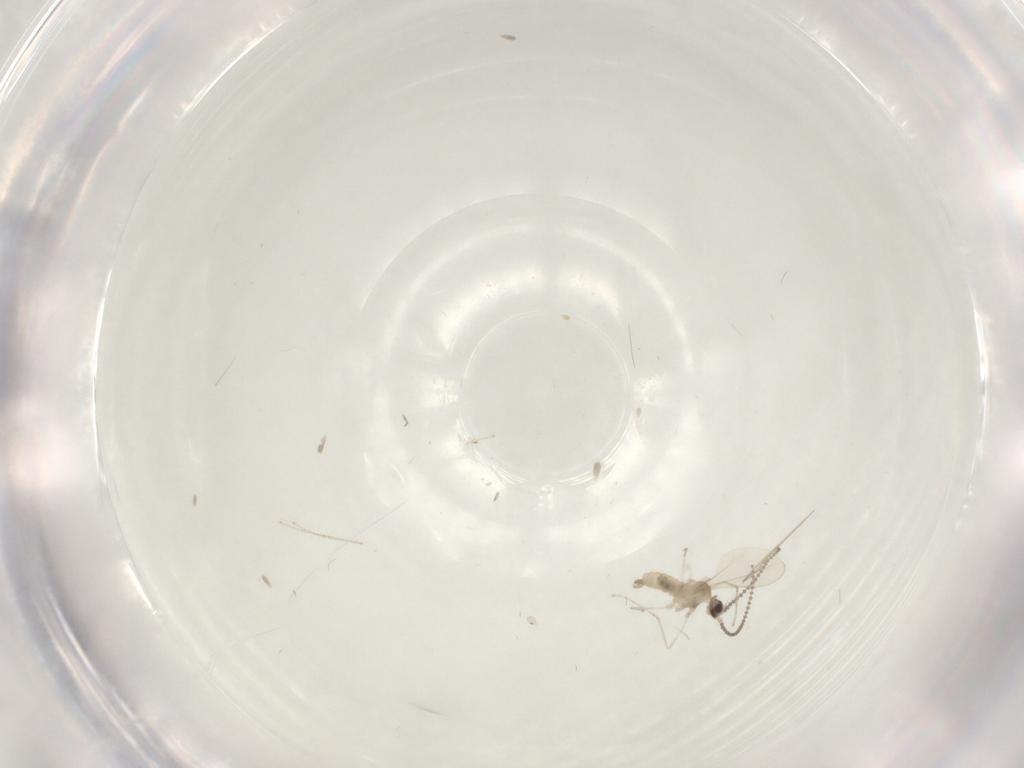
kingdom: Animalia
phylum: Arthropoda
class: Insecta
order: Diptera
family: Cecidomyiidae
